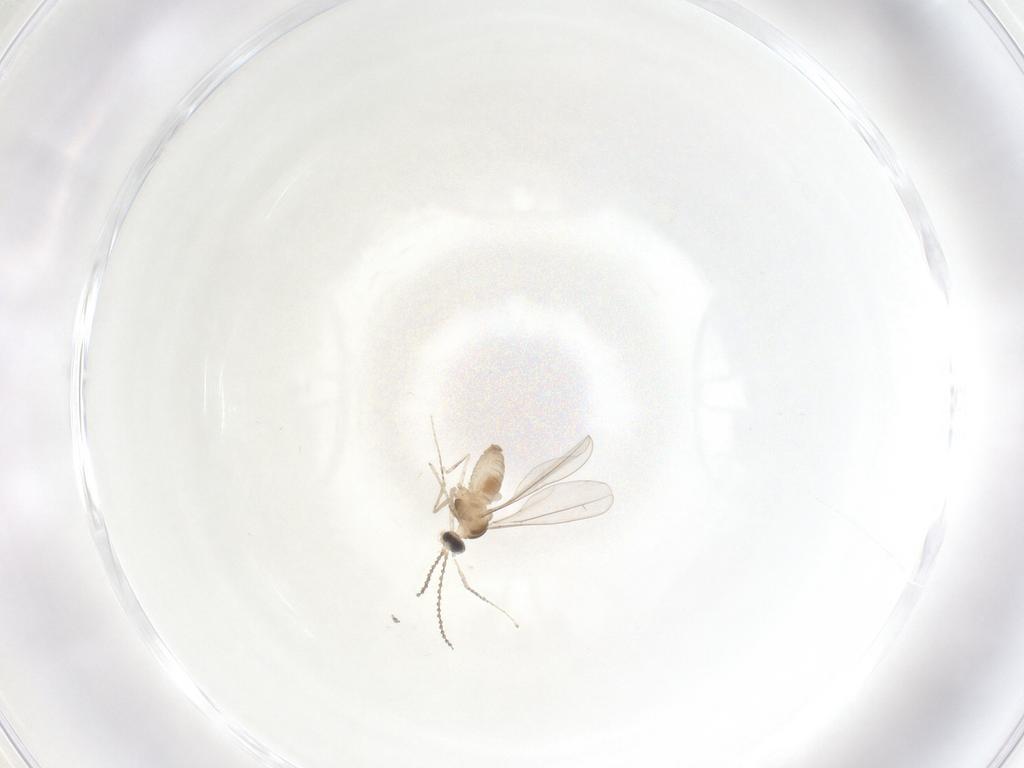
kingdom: Animalia
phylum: Arthropoda
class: Insecta
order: Diptera
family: Cecidomyiidae
